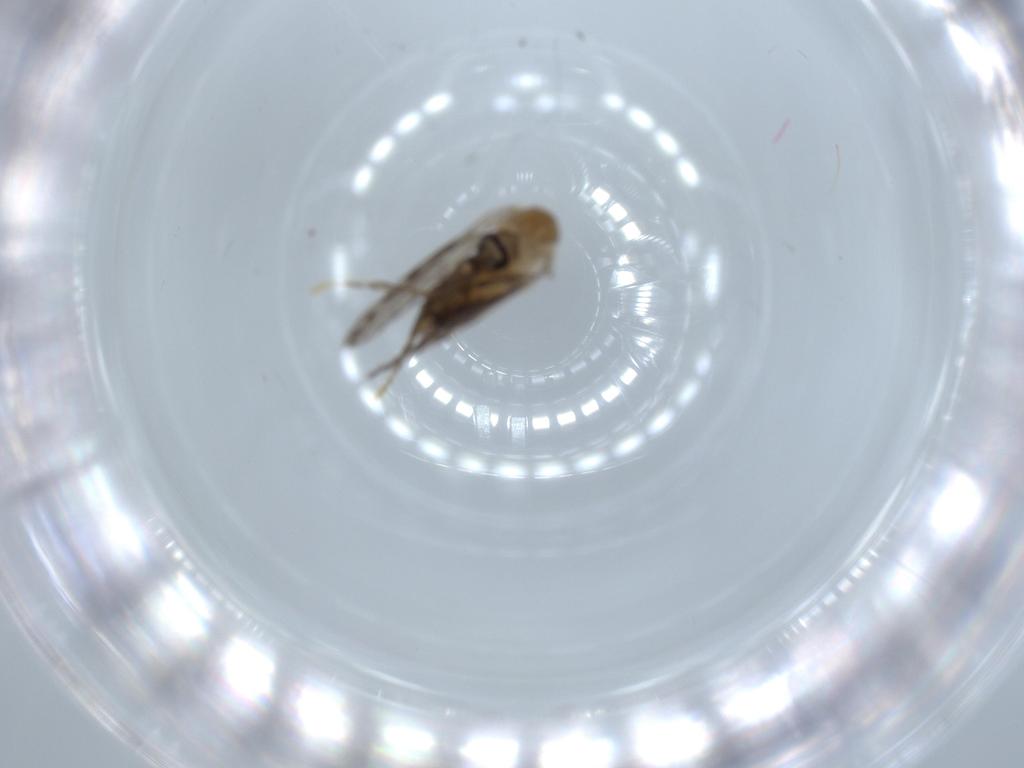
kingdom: Animalia
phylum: Arthropoda
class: Insecta
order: Diptera
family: Psychodidae
